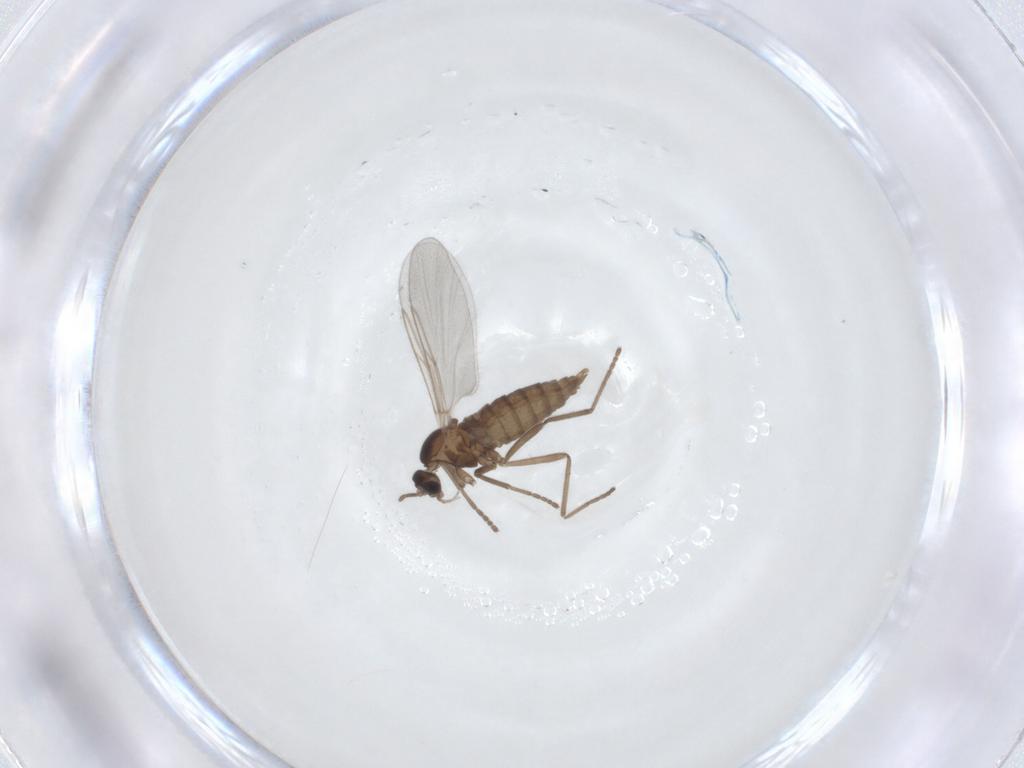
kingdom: Animalia
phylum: Arthropoda
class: Insecta
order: Diptera
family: Cecidomyiidae
